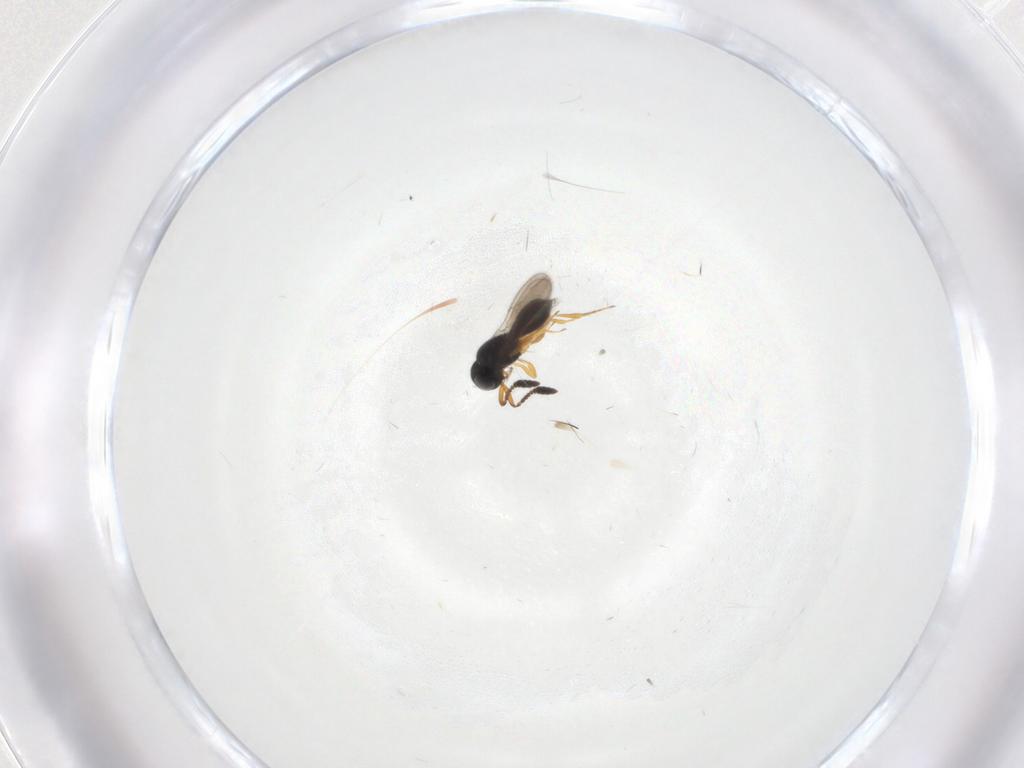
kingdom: Animalia
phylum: Arthropoda
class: Insecta
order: Hymenoptera
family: Scelionidae
